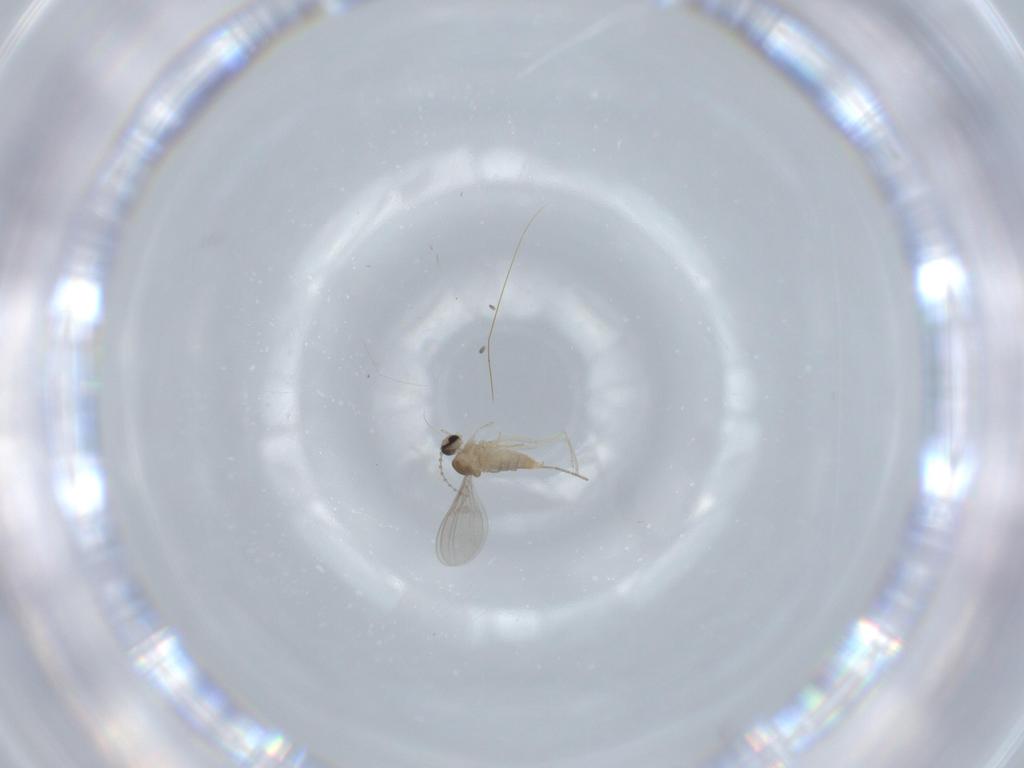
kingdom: Animalia
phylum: Arthropoda
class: Insecta
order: Diptera
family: Cecidomyiidae
